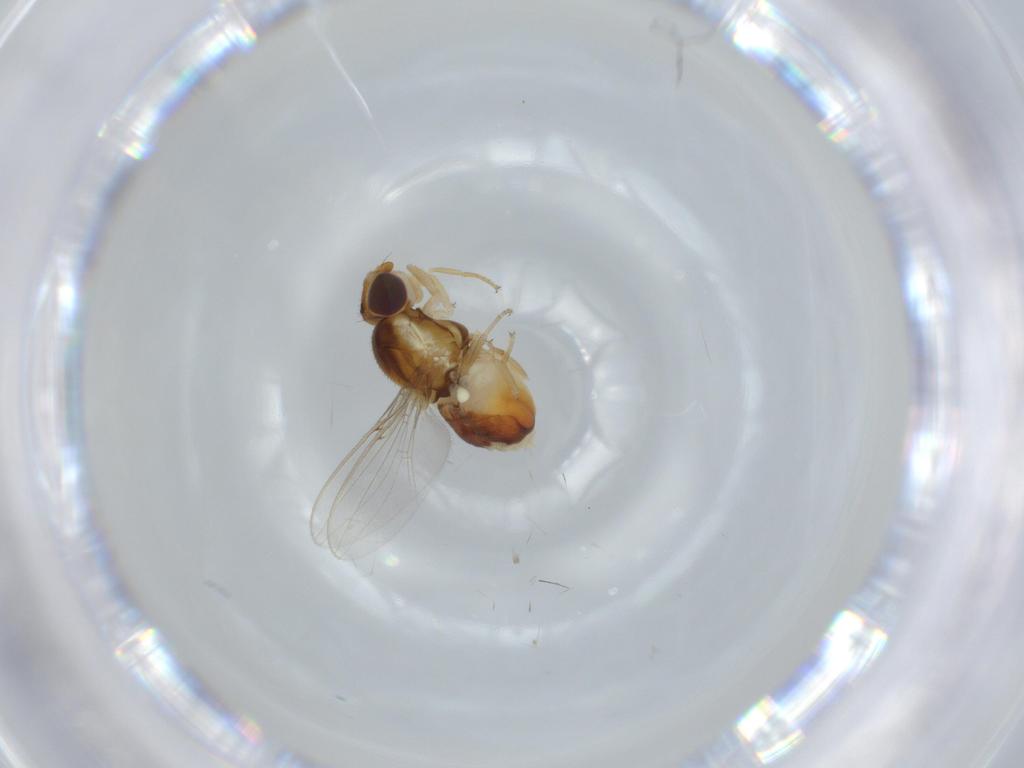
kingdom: Animalia
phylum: Arthropoda
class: Insecta
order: Diptera
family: Chloropidae
